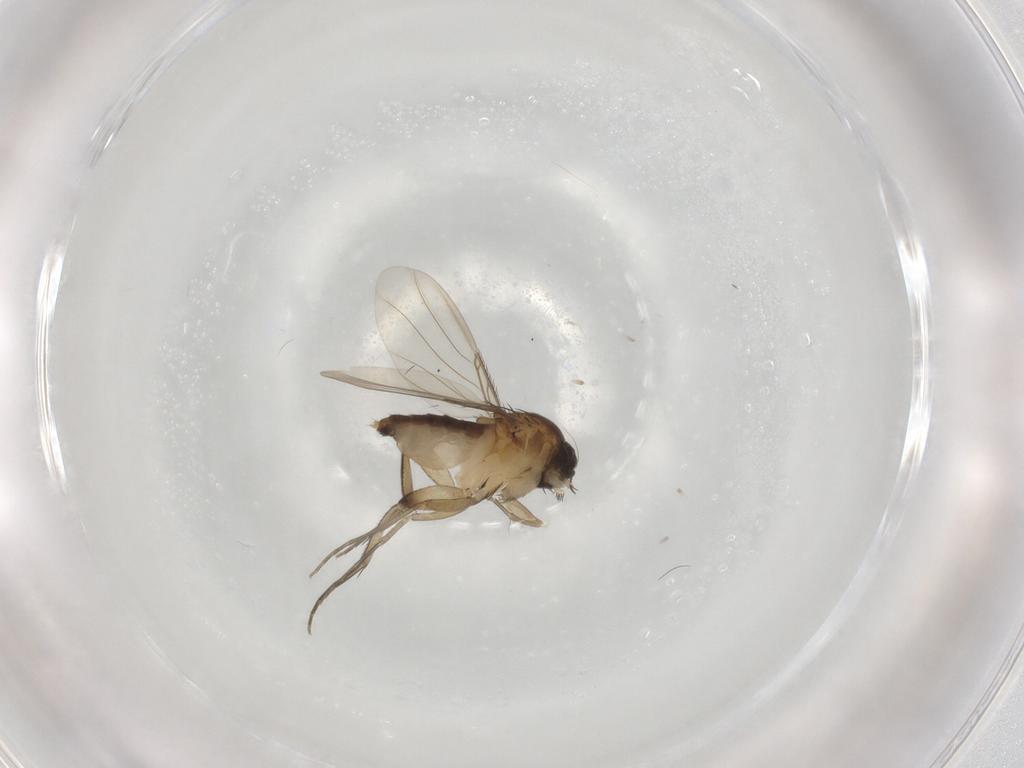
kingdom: Animalia
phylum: Arthropoda
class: Insecta
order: Diptera
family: Phoridae
